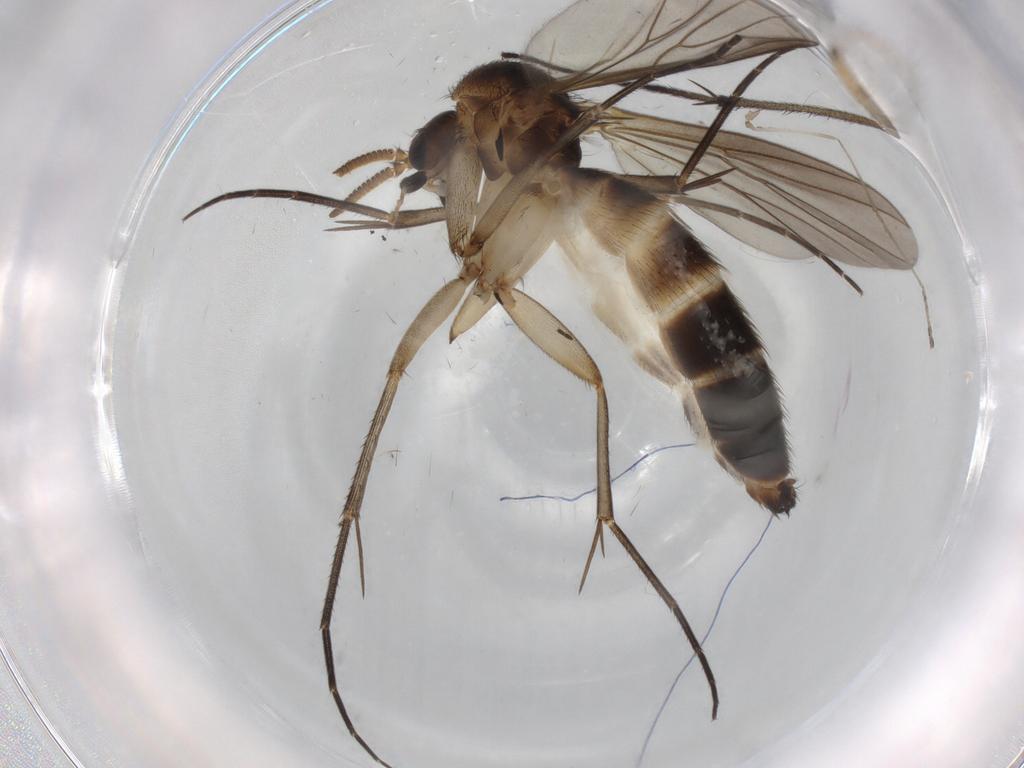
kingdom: Animalia
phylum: Arthropoda
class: Insecta
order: Diptera
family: Mycetophilidae
